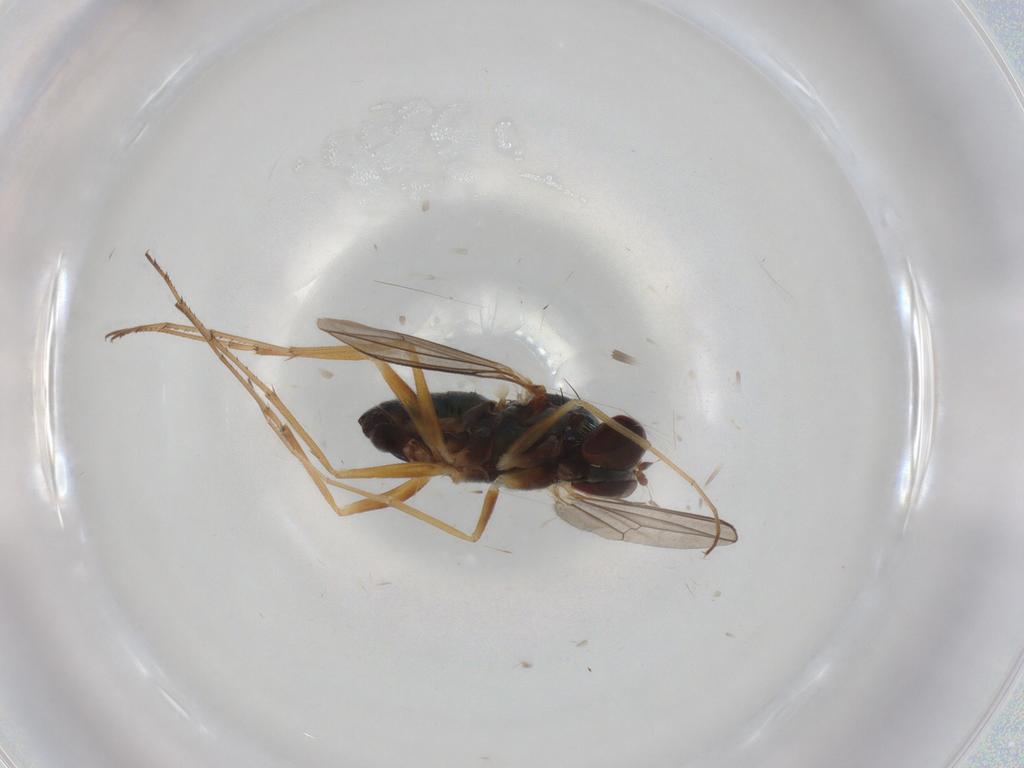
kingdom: Animalia
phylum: Arthropoda
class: Insecta
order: Diptera
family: Dolichopodidae
